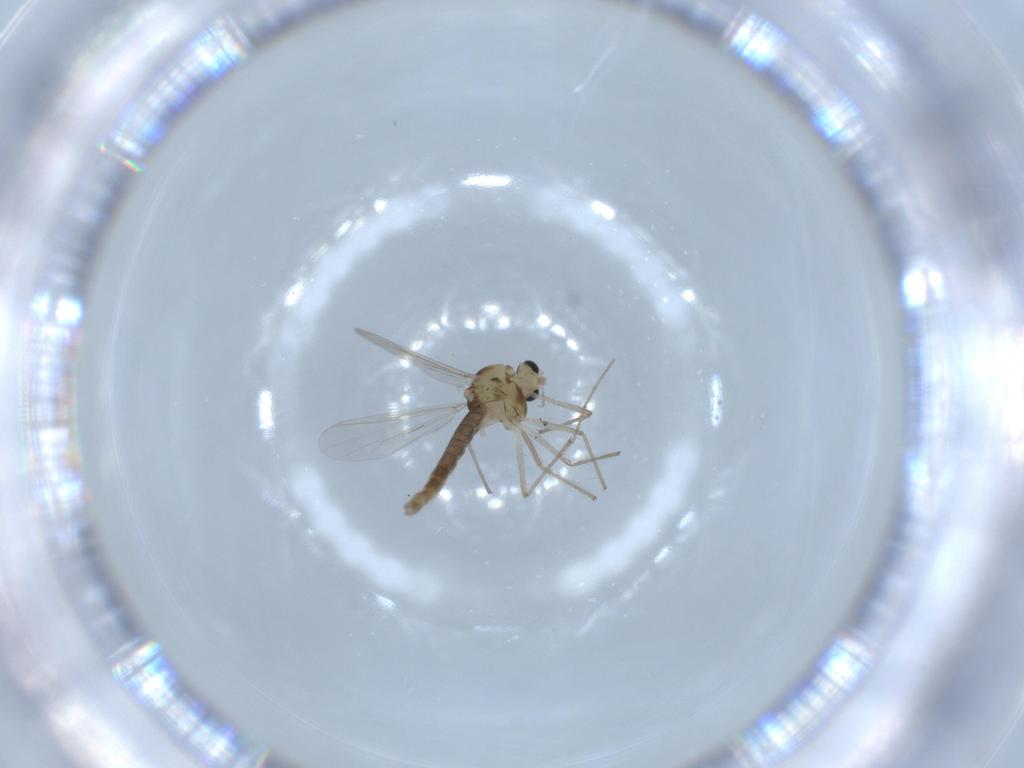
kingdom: Animalia
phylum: Arthropoda
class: Insecta
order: Diptera
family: Chironomidae
